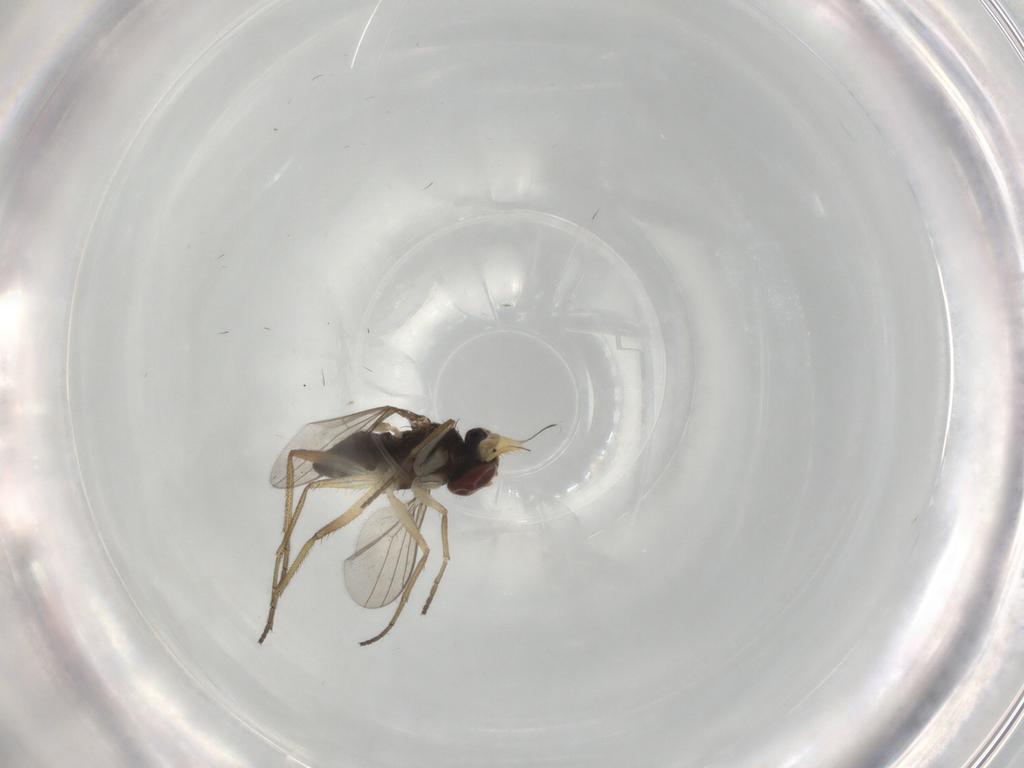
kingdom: Animalia
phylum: Arthropoda
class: Insecta
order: Diptera
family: Dolichopodidae
